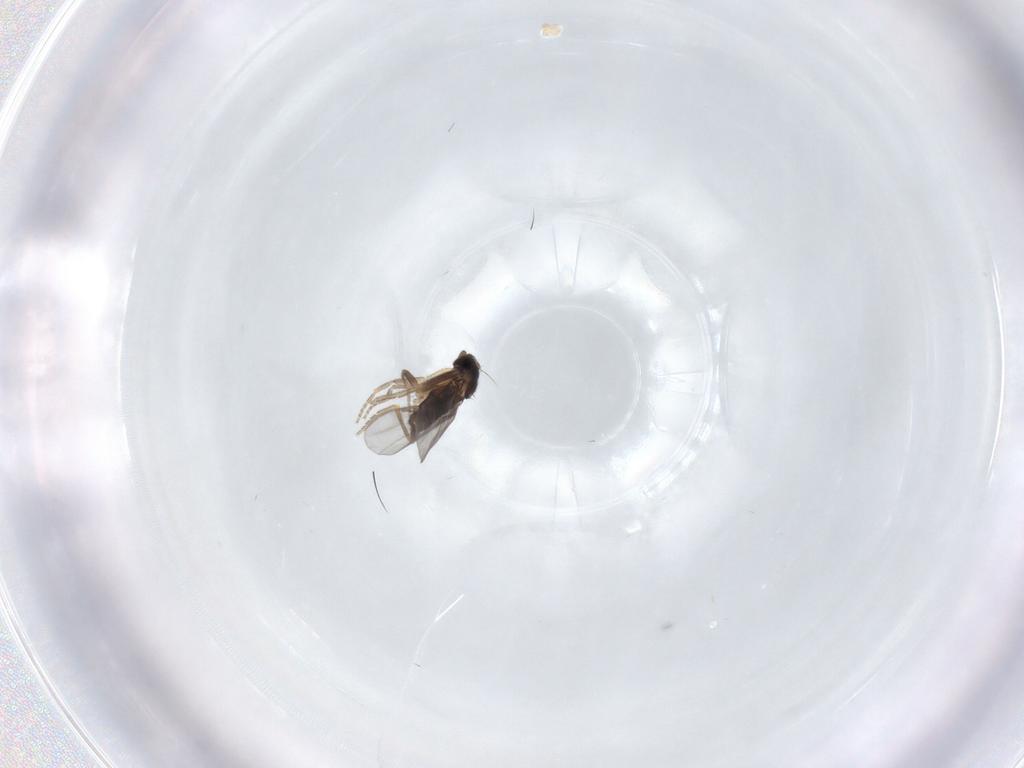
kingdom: Animalia
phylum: Arthropoda
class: Insecta
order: Diptera
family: Phoridae
